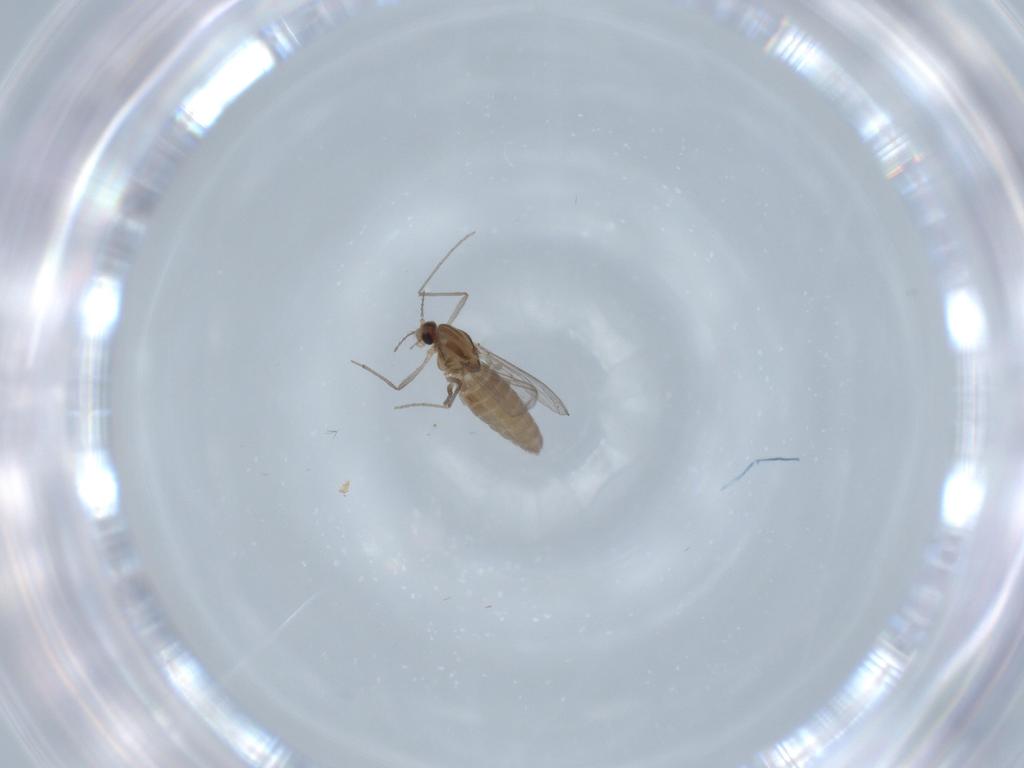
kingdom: Animalia
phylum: Arthropoda
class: Insecta
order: Diptera
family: Chironomidae
